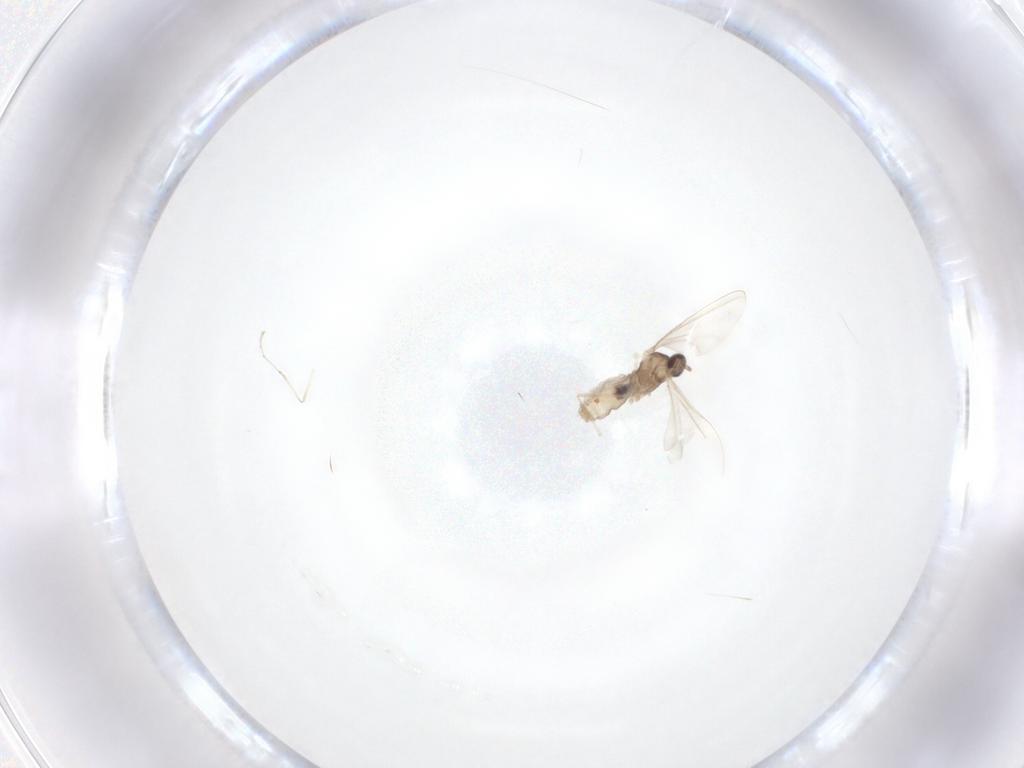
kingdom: Animalia
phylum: Arthropoda
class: Insecta
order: Diptera
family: Cecidomyiidae
